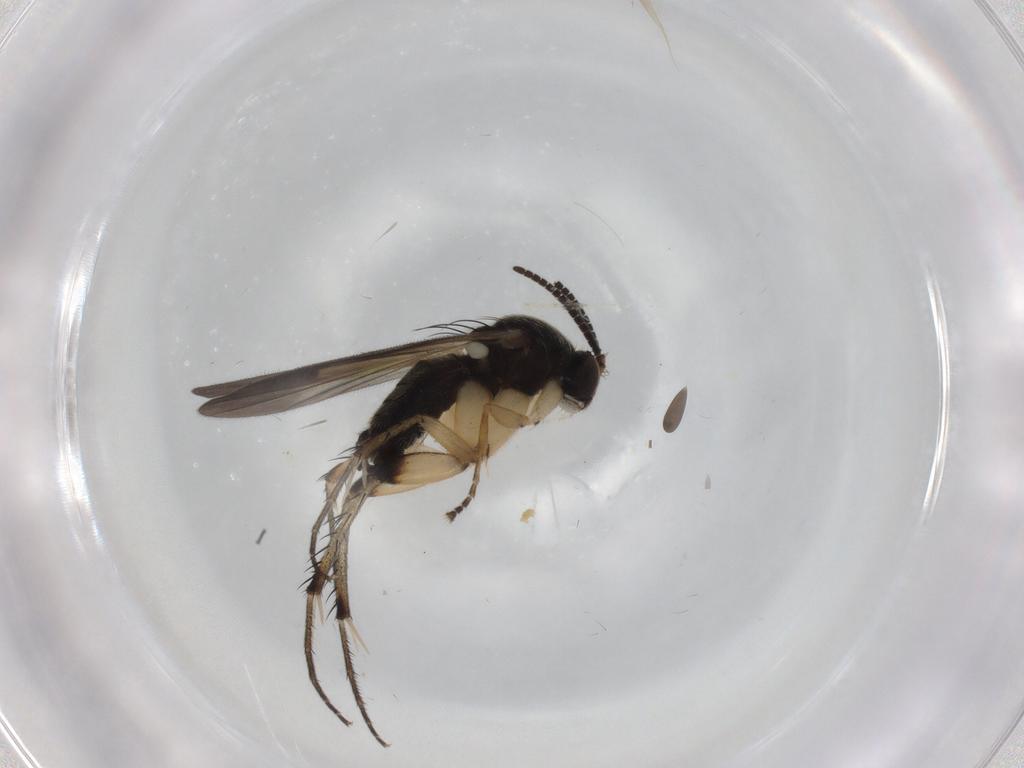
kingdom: Animalia
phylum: Arthropoda
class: Insecta
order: Diptera
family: Mycetophilidae
